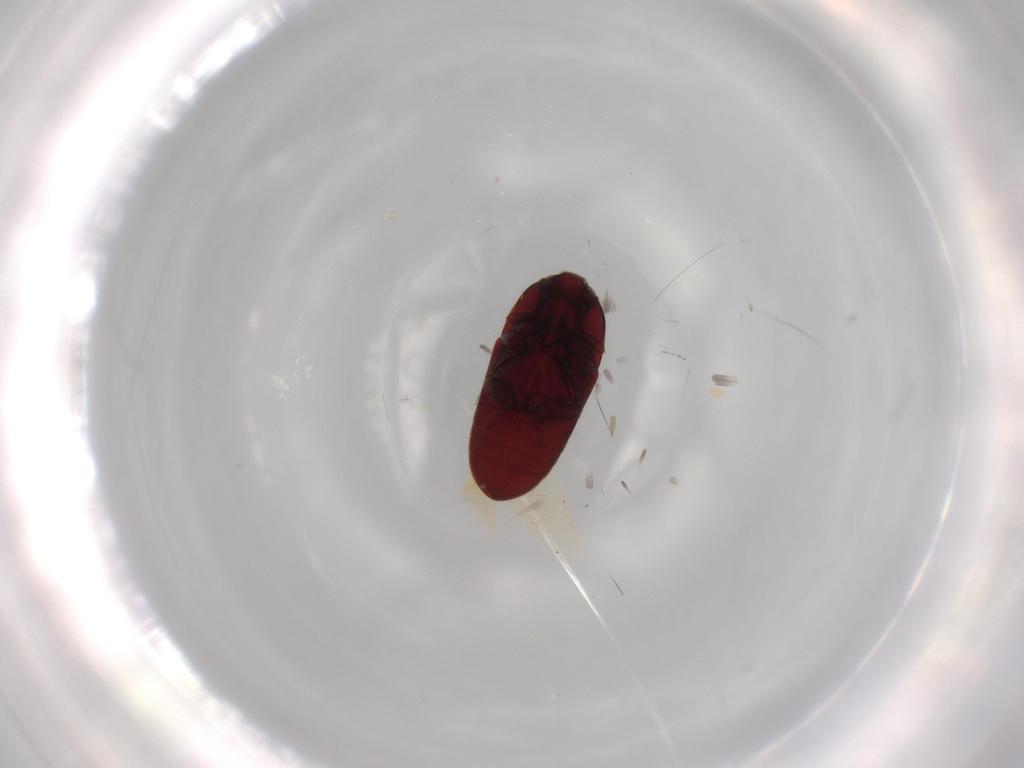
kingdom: Animalia
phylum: Arthropoda
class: Insecta
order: Coleoptera
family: Throscidae
